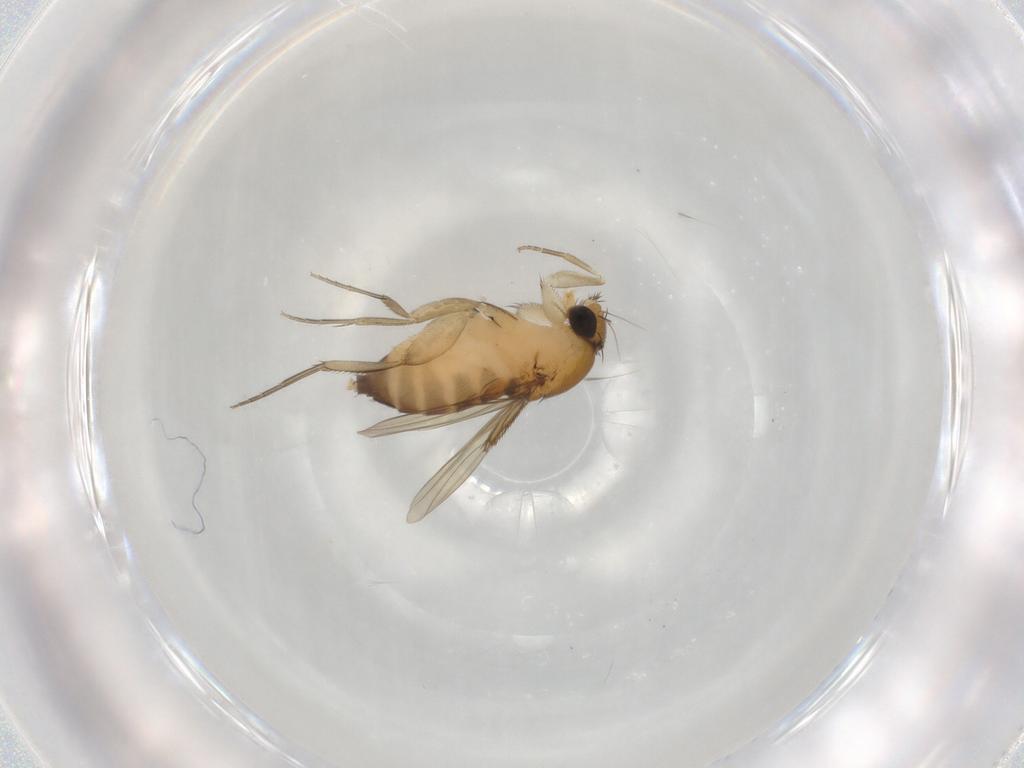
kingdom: Animalia
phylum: Arthropoda
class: Insecta
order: Diptera
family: Phoridae
